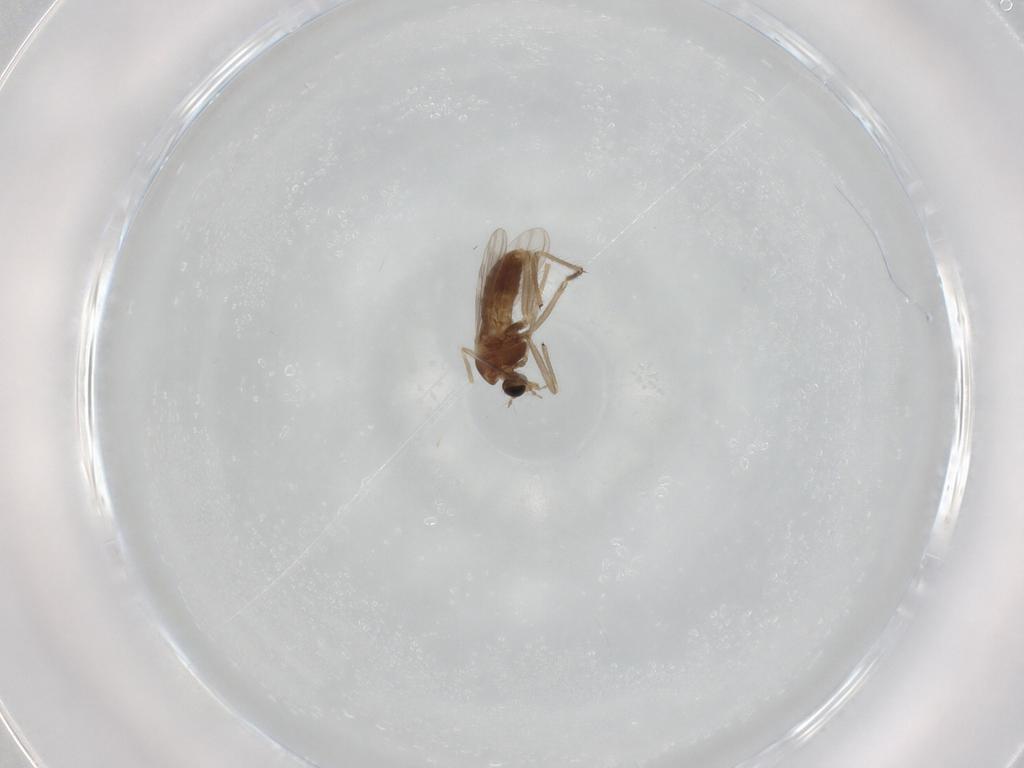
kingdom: Animalia
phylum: Arthropoda
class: Insecta
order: Diptera
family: Chironomidae
